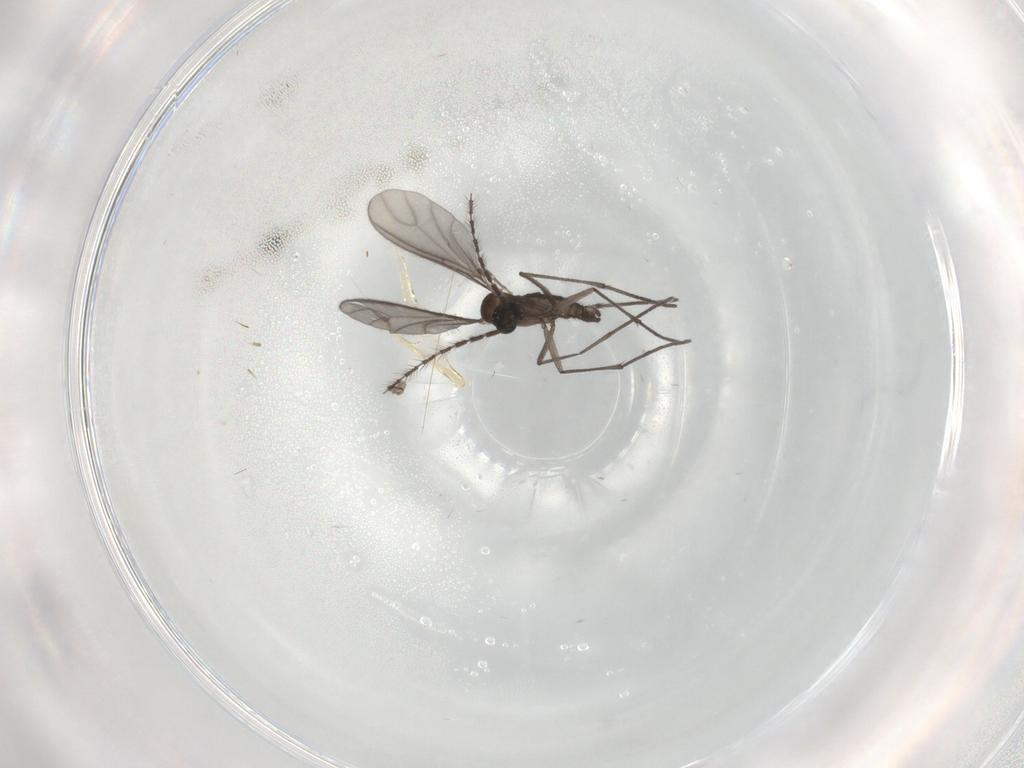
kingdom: Animalia
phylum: Arthropoda
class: Insecta
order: Diptera
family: Sciaridae
